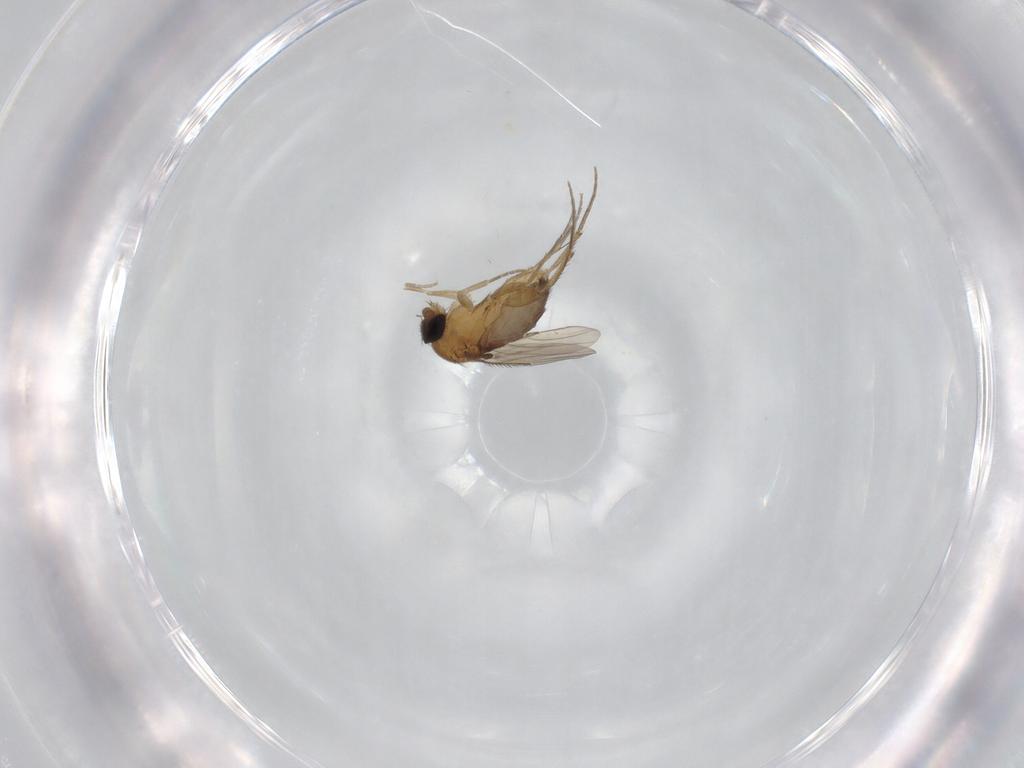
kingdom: Animalia
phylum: Arthropoda
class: Insecta
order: Diptera
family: Phoridae
